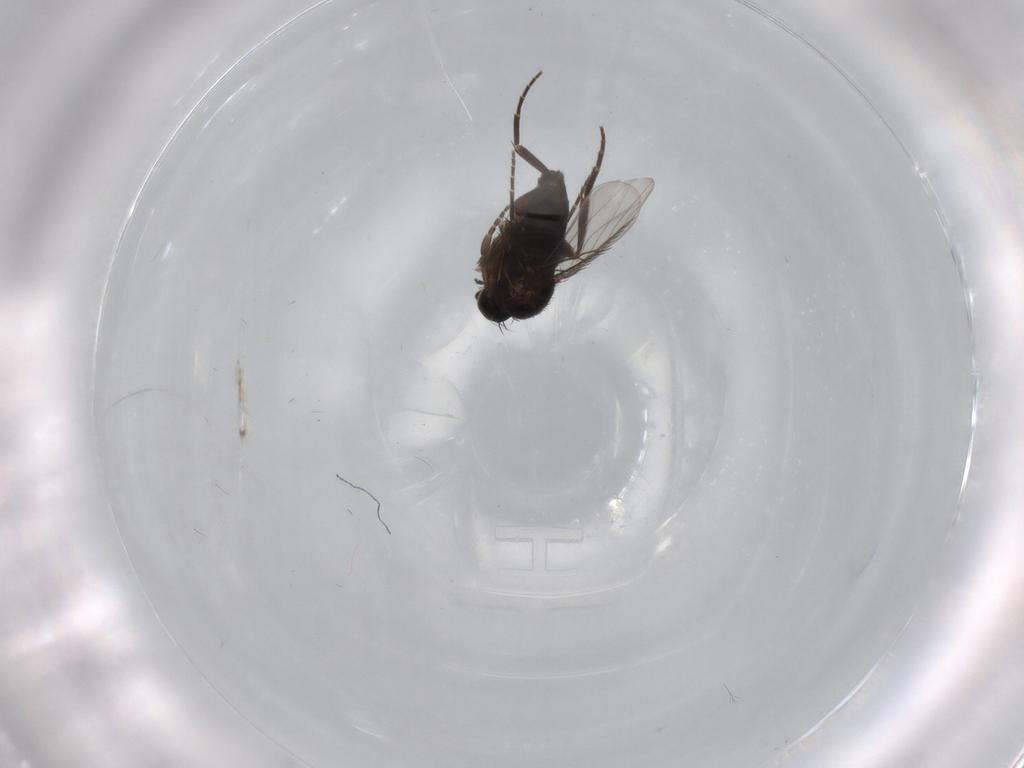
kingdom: Animalia
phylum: Arthropoda
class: Insecta
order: Diptera
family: Phoridae
